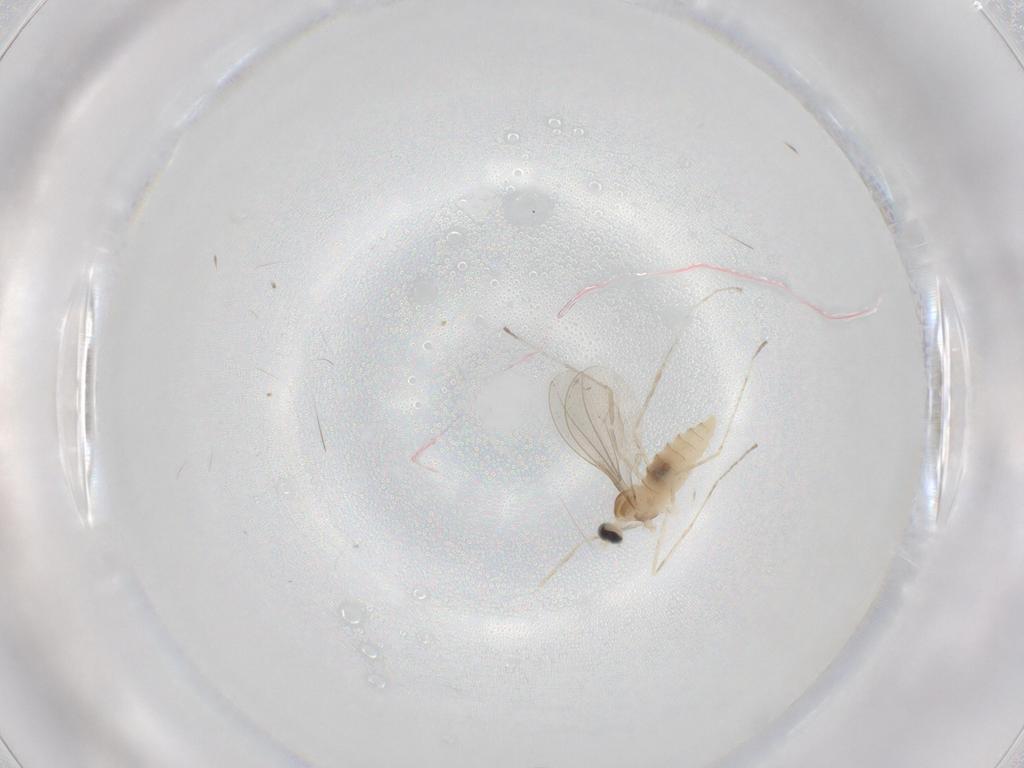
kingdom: Animalia
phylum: Arthropoda
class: Insecta
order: Diptera
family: Cecidomyiidae
